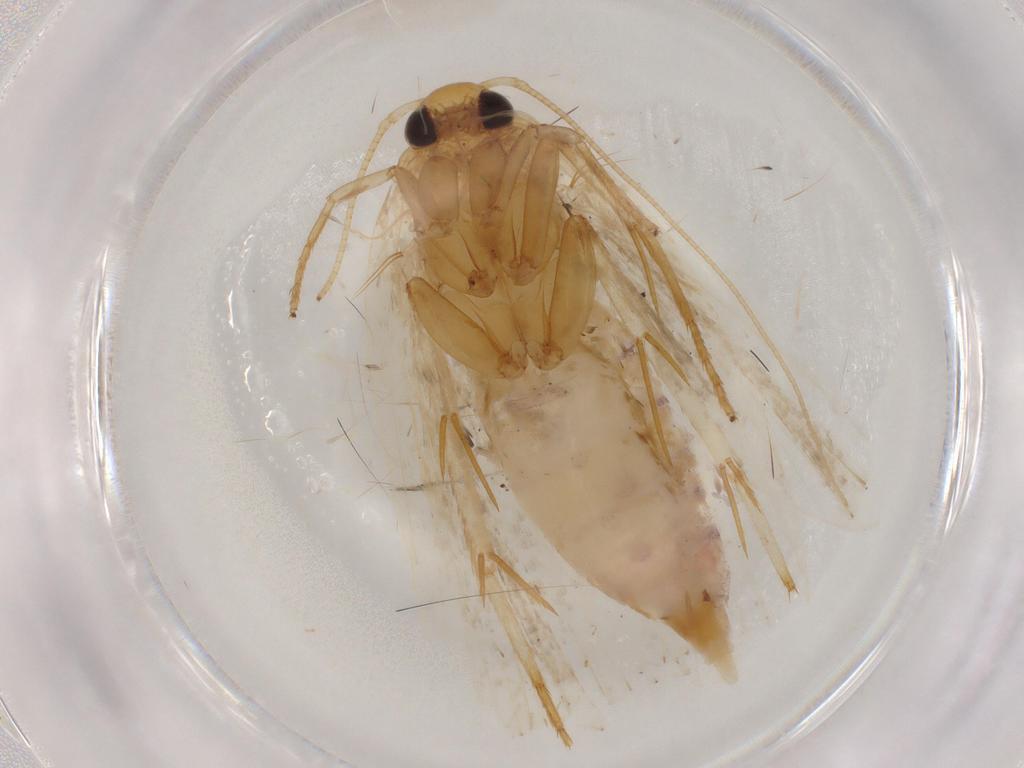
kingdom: Animalia
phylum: Arthropoda
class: Insecta
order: Lepidoptera
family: Depressariidae
